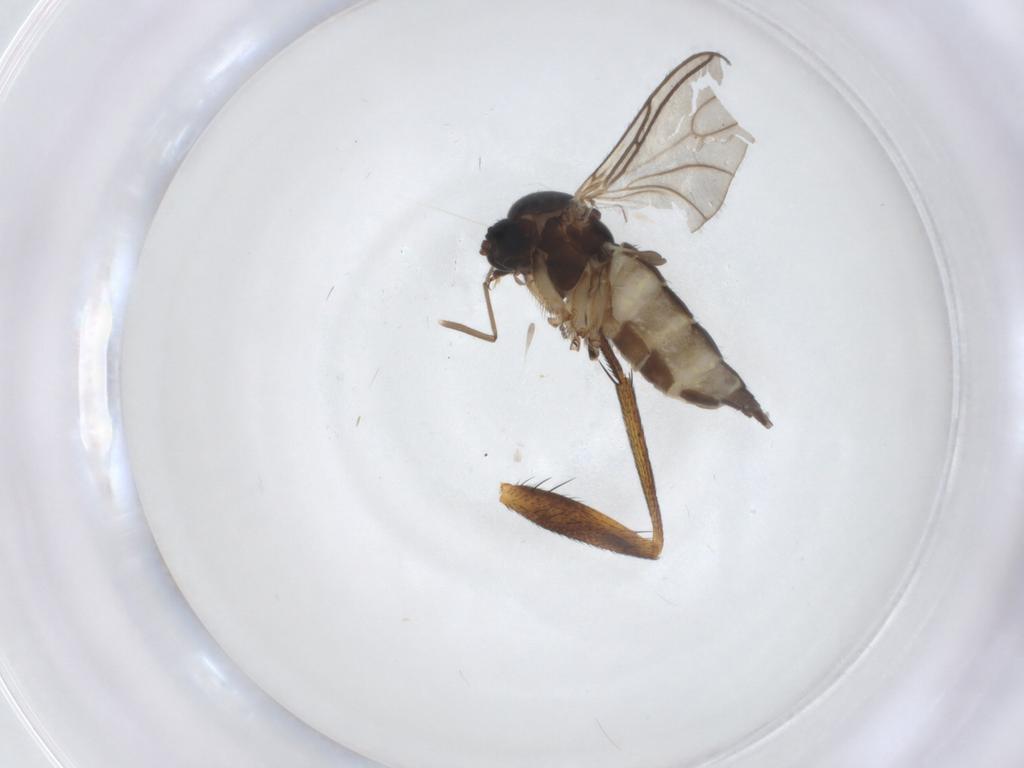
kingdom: Animalia
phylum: Arthropoda
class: Insecta
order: Diptera
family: Sciaridae
